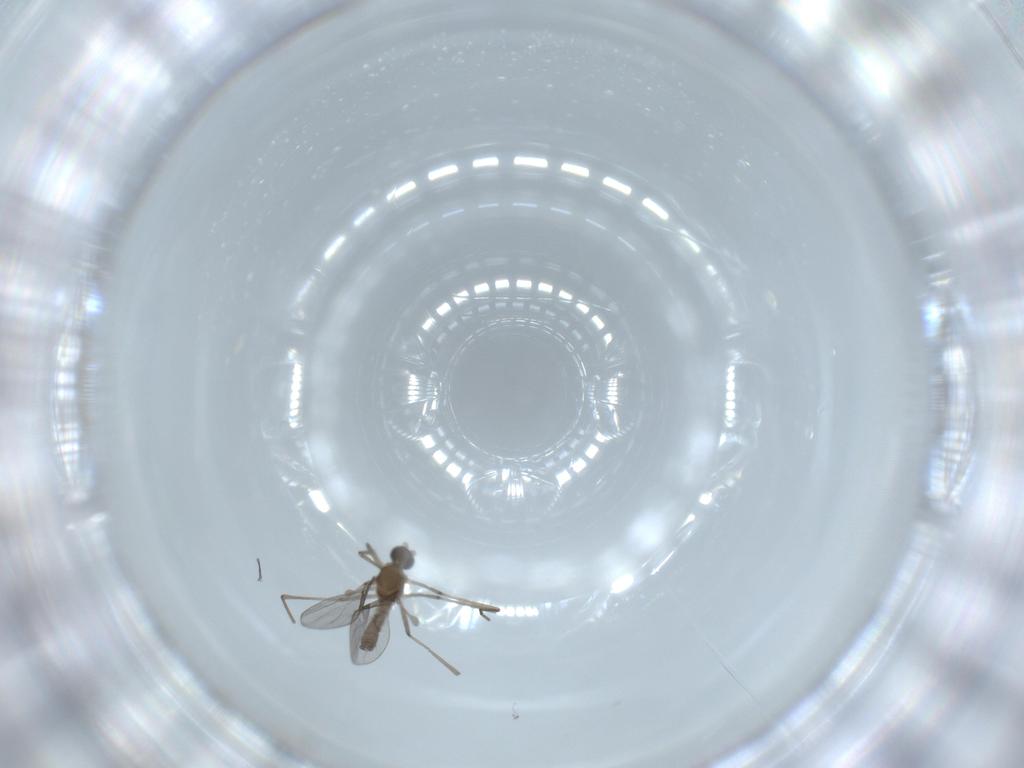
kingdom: Animalia
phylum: Arthropoda
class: Insecta
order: Diptera
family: Cecidomyiidae
